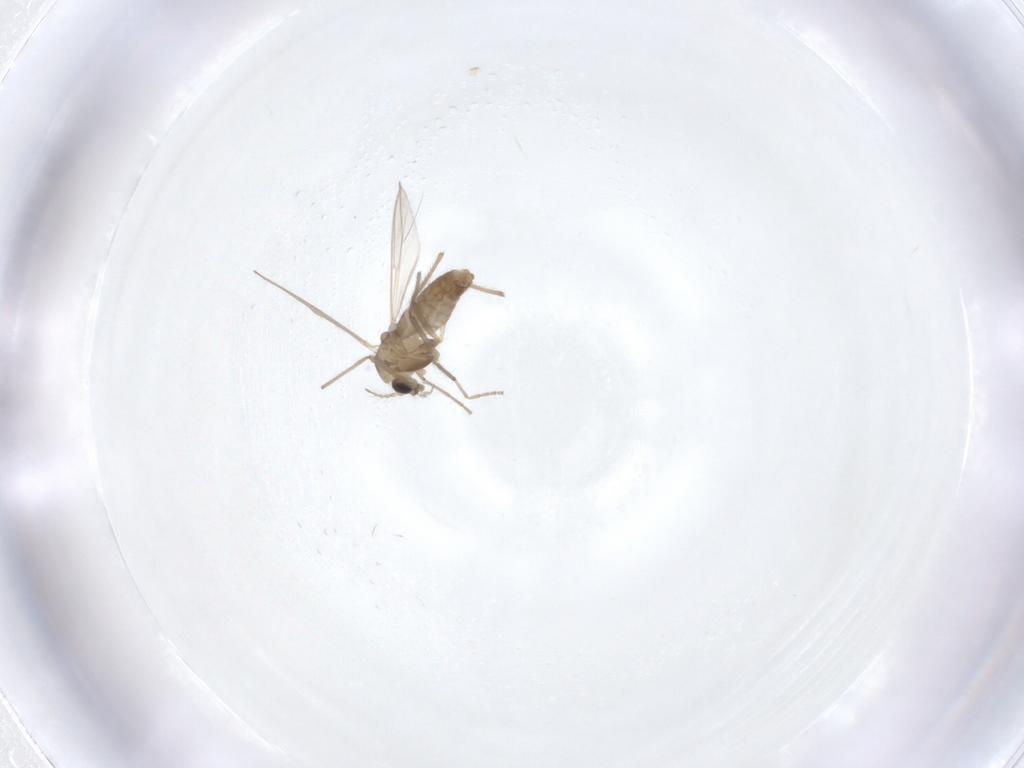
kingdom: Animalia
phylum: Arthropoda
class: Insecta
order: Diptera
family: Chironomidae
